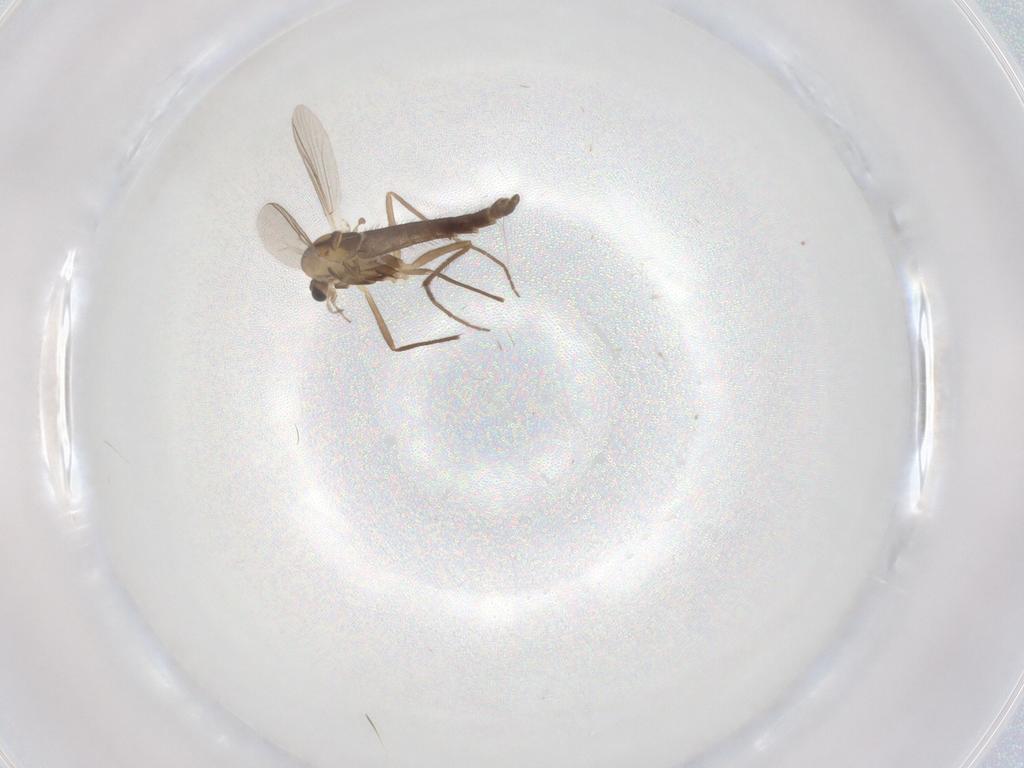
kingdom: Animalia
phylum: Arthropoda
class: Insecta
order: Diptera
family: Chironomidae
